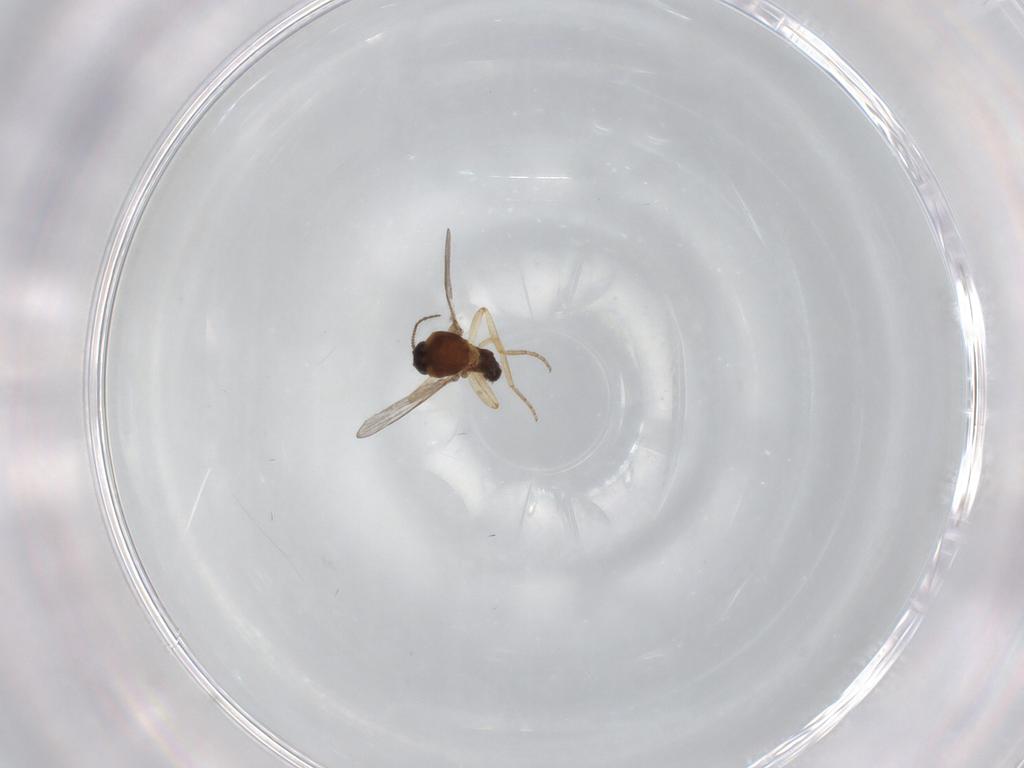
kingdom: Animalia
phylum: Arthropoda
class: Insecta
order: Diptera
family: Ceratopogonidae
